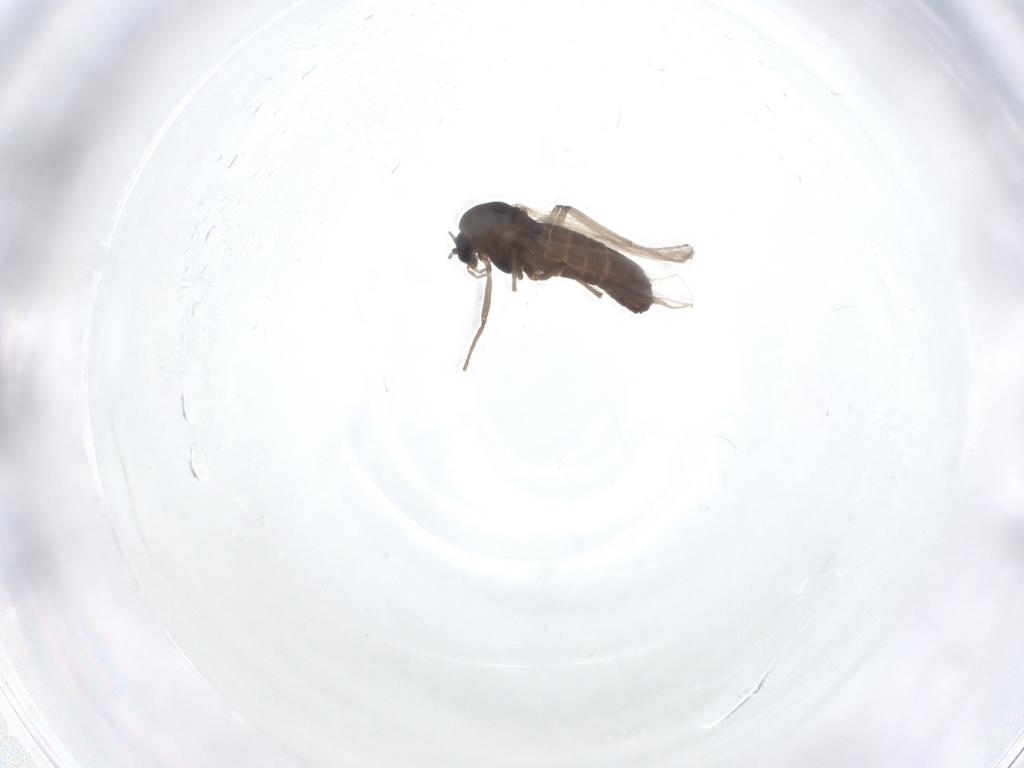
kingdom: Animalia
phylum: Arthropoda
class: Insecta
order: Diptera
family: Chironomidae
